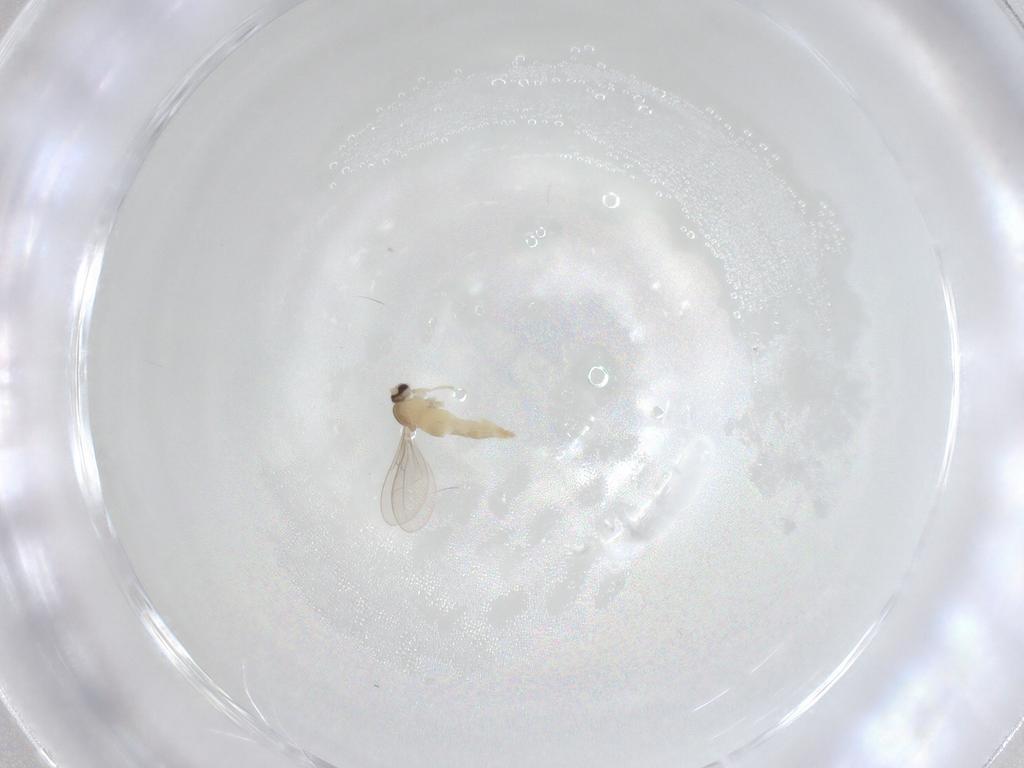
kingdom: Animalia
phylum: Arthropoda
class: Insecta
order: Diptera
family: Cecidomyiidae
